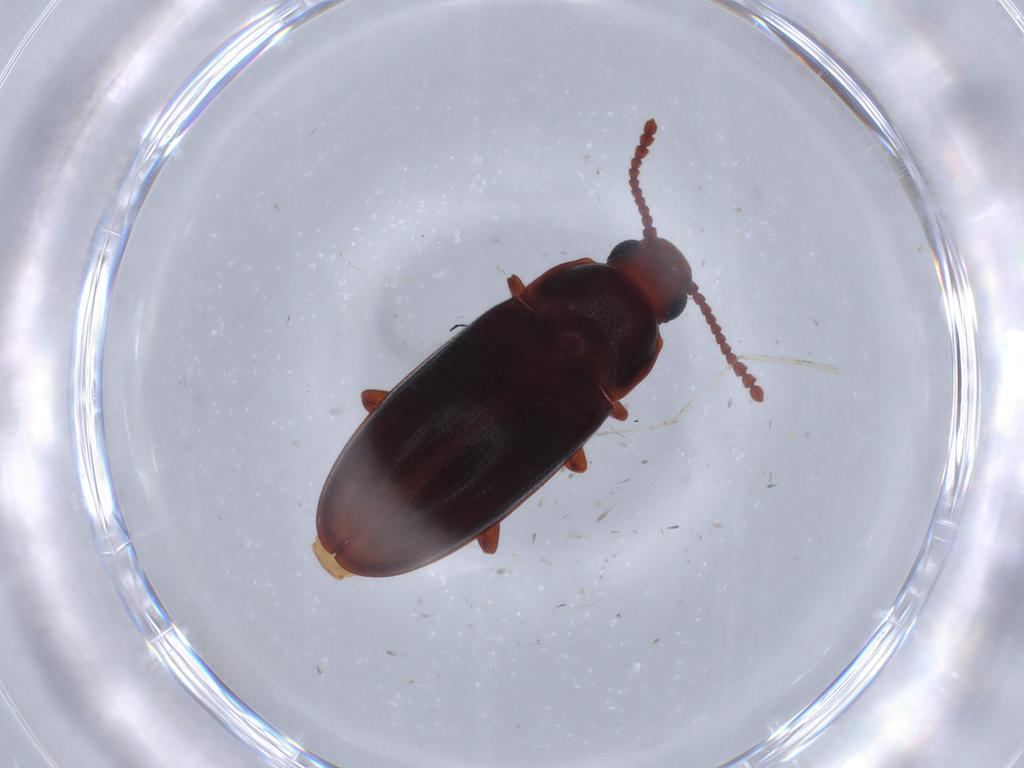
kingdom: Animalia
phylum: Arthropoda
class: Insecta
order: Coleoptera
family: Erotylidae
